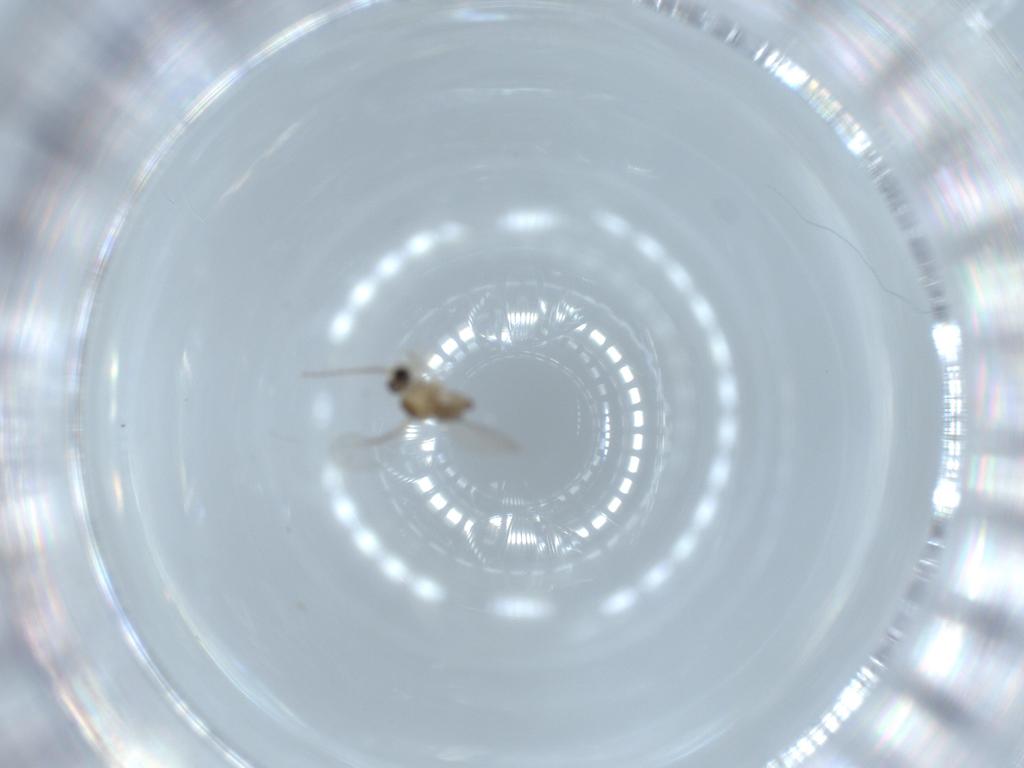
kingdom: Animalia
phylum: Arthropoda
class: Insecta
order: Diptera
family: Cecidomyiidae
